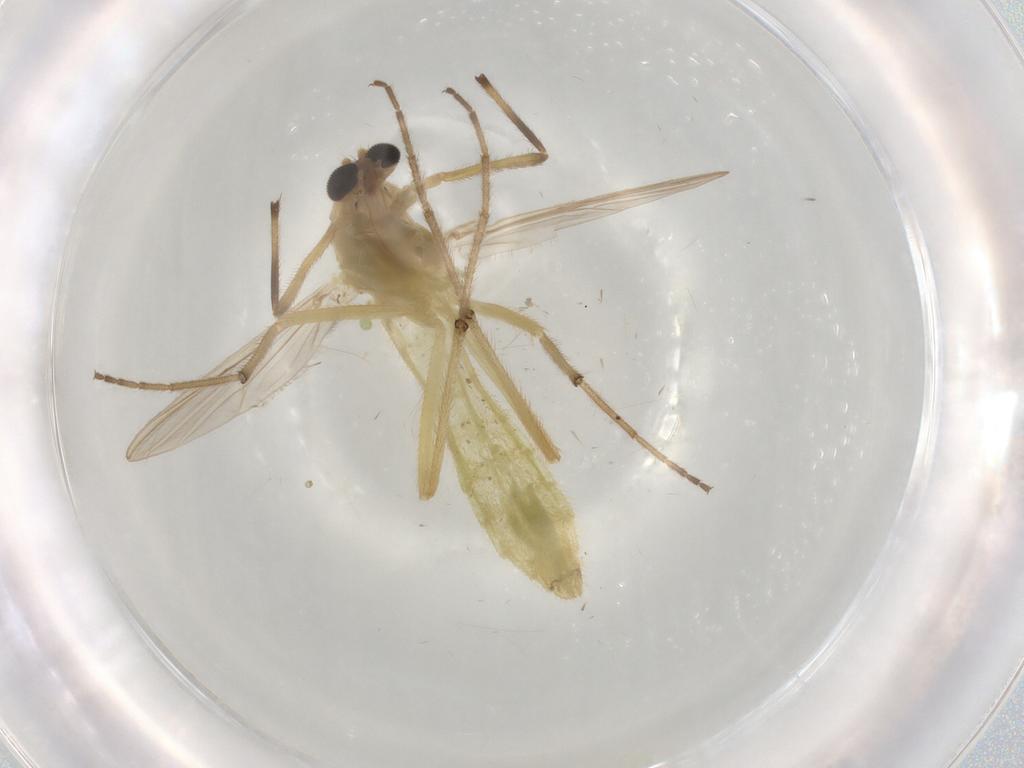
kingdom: Animalia
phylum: Arthropoda
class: Insecta
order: Diptera
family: Chironomidae
